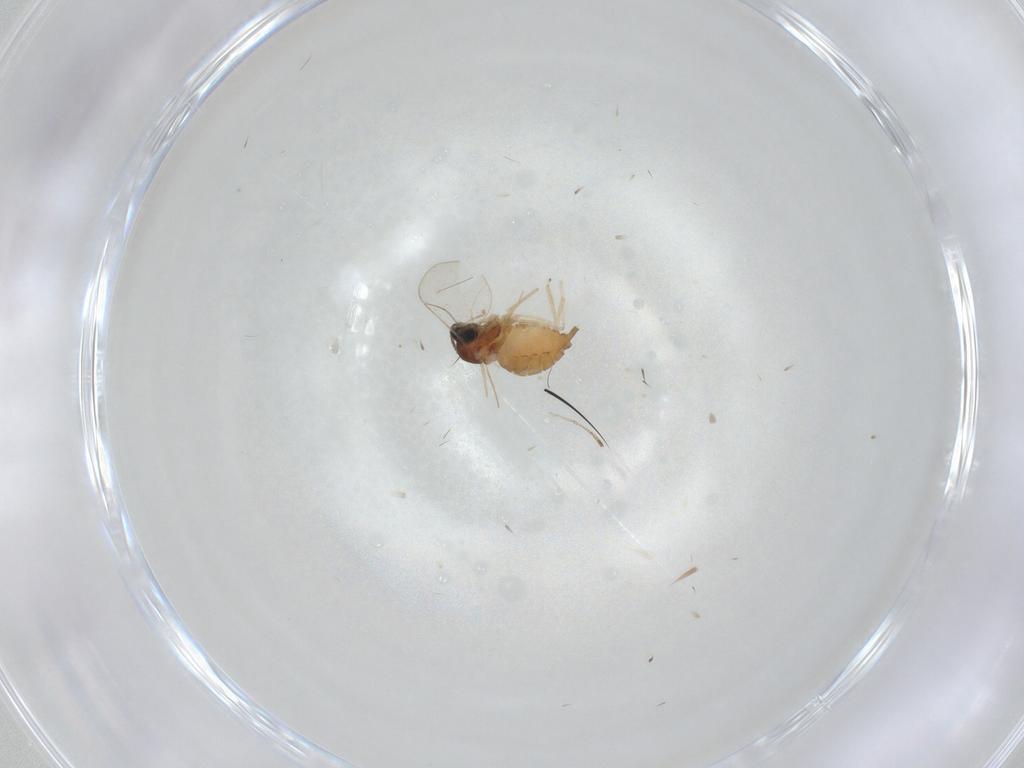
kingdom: Animalia
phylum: Arthropoda
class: Insecta
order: Diptera
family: Cecidomyiidae
